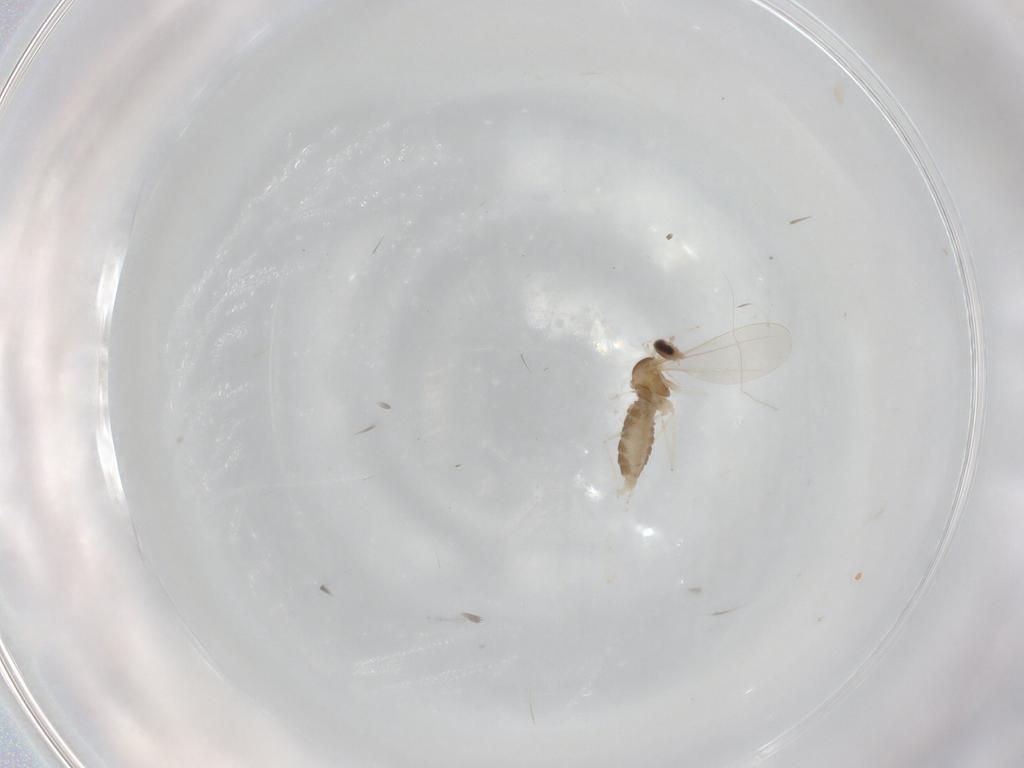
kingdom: Animalia
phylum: Arthropoda
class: Insecta
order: Diptera
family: Cecidomyiidae
